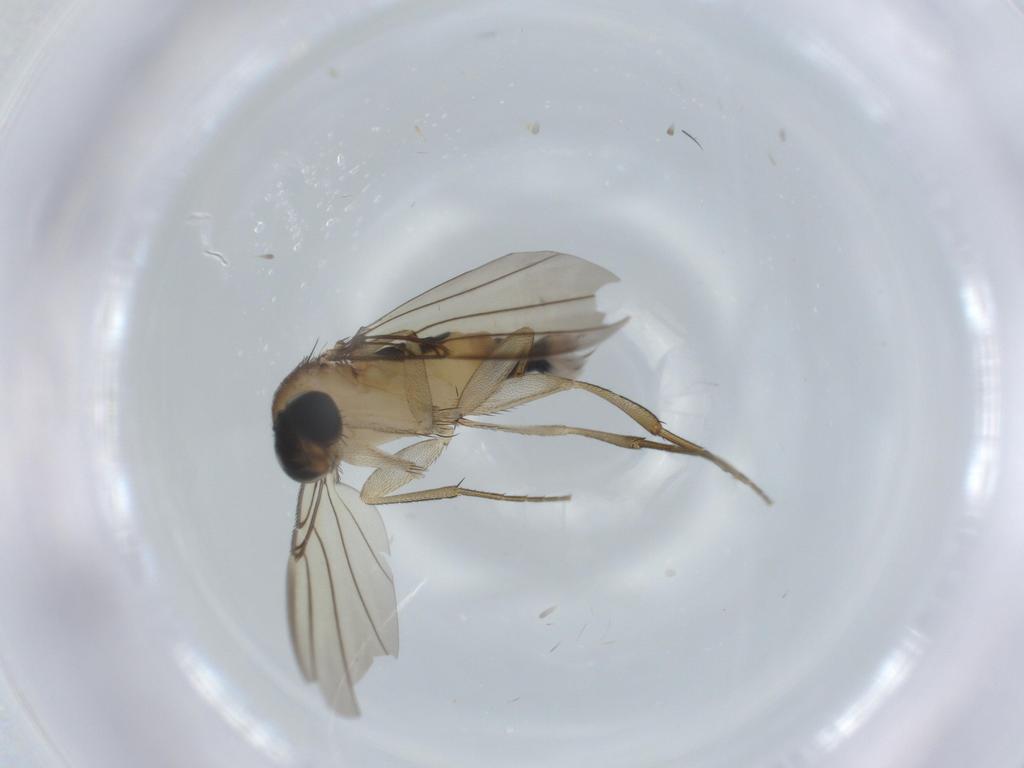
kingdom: Animalia
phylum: Arthropoda
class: Insecta
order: Diptera
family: Phoridae
